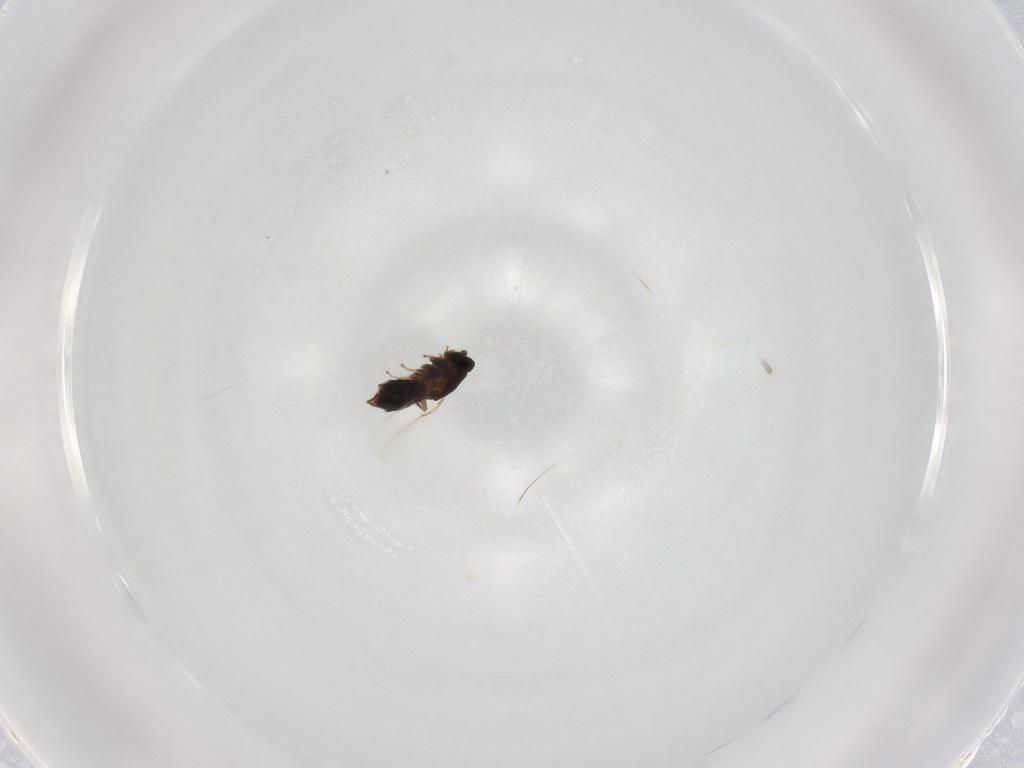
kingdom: Animalia
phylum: Arthropoda
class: Insecta
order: Diptera
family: Scatopsidae
